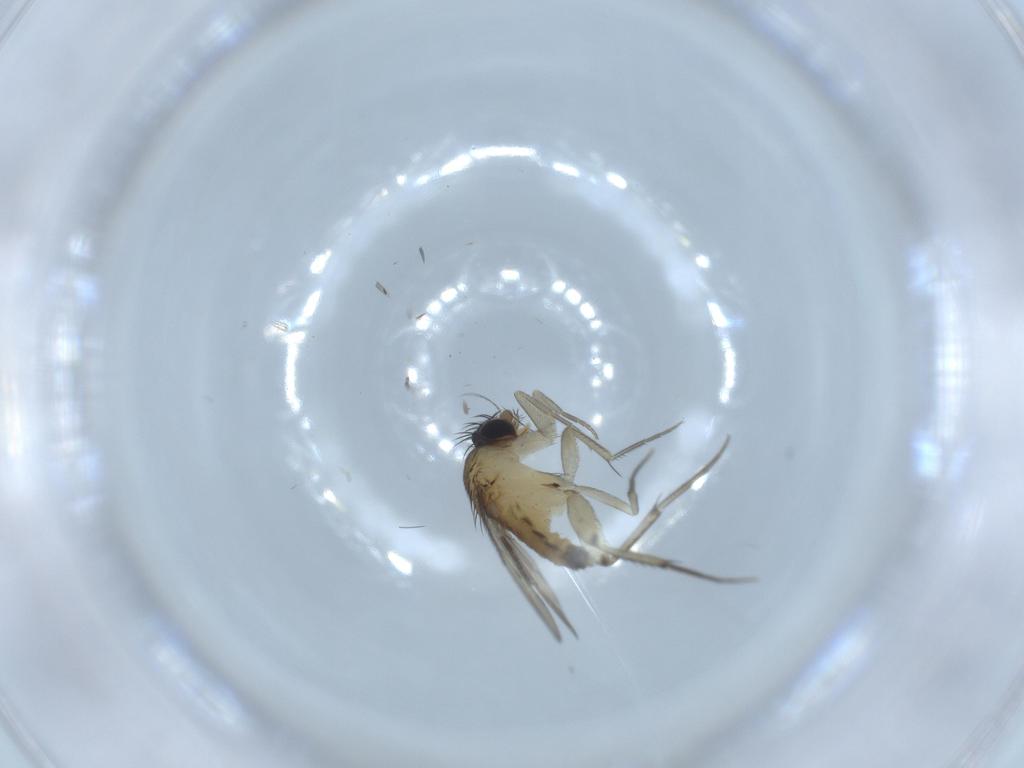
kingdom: Animalia
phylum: Arthropoda
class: Insecta
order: Diptera
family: Phoridae
